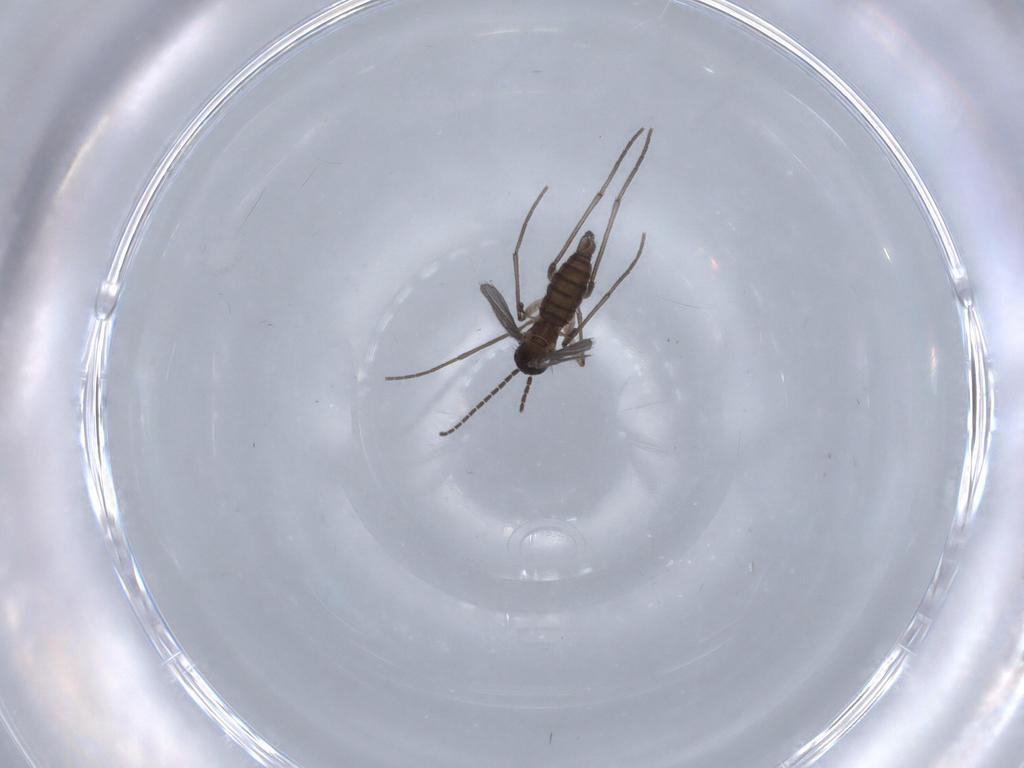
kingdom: Animalia
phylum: Arthropoda
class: Insecta
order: Diptera
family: Sciaridae
